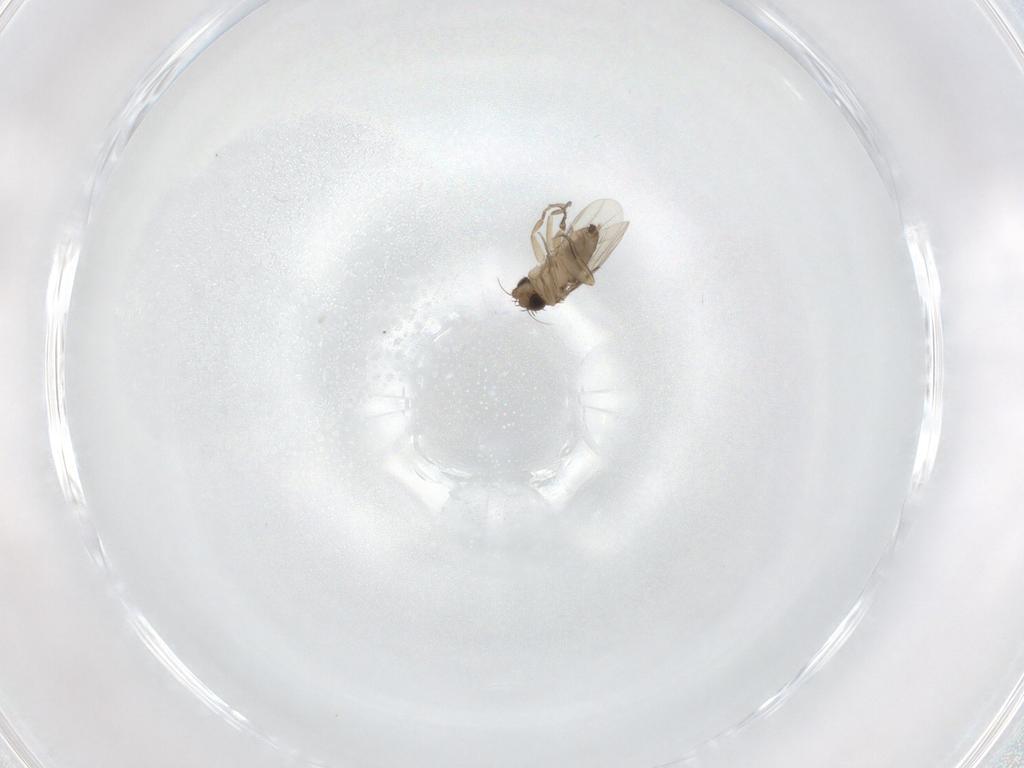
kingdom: Animalia
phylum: Arthropoda
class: Insecta
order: Diptera
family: Phoridae
